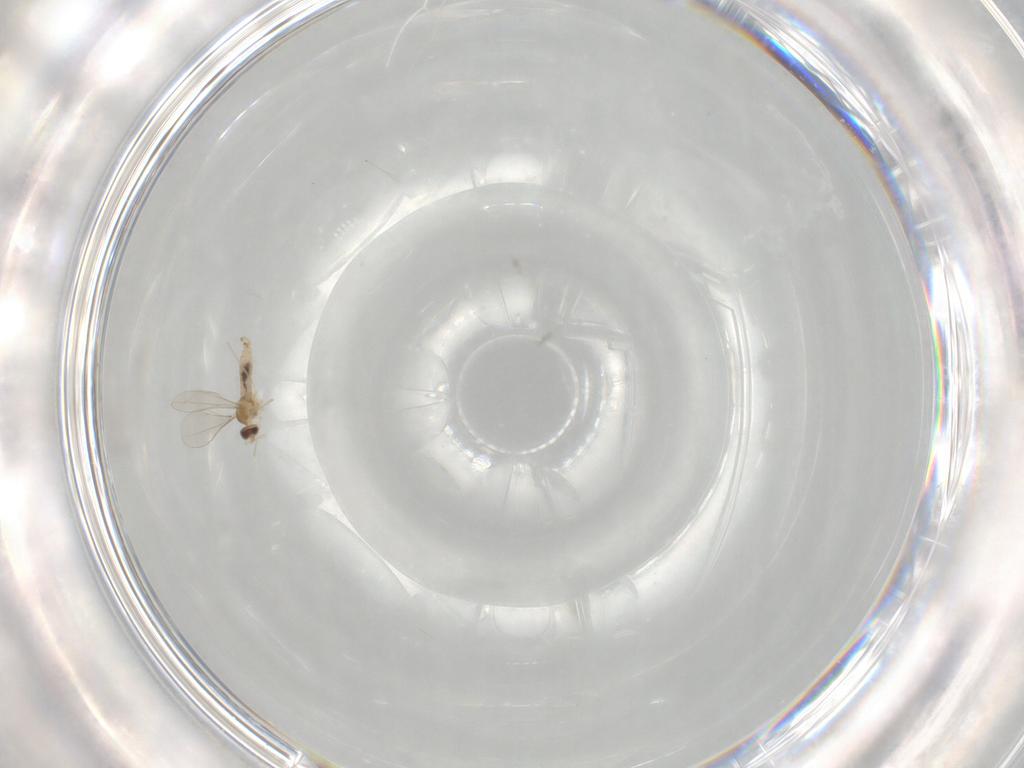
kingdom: Animalia
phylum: Arthropoda
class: Insecta
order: Diptera
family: Cecidomyiidae
